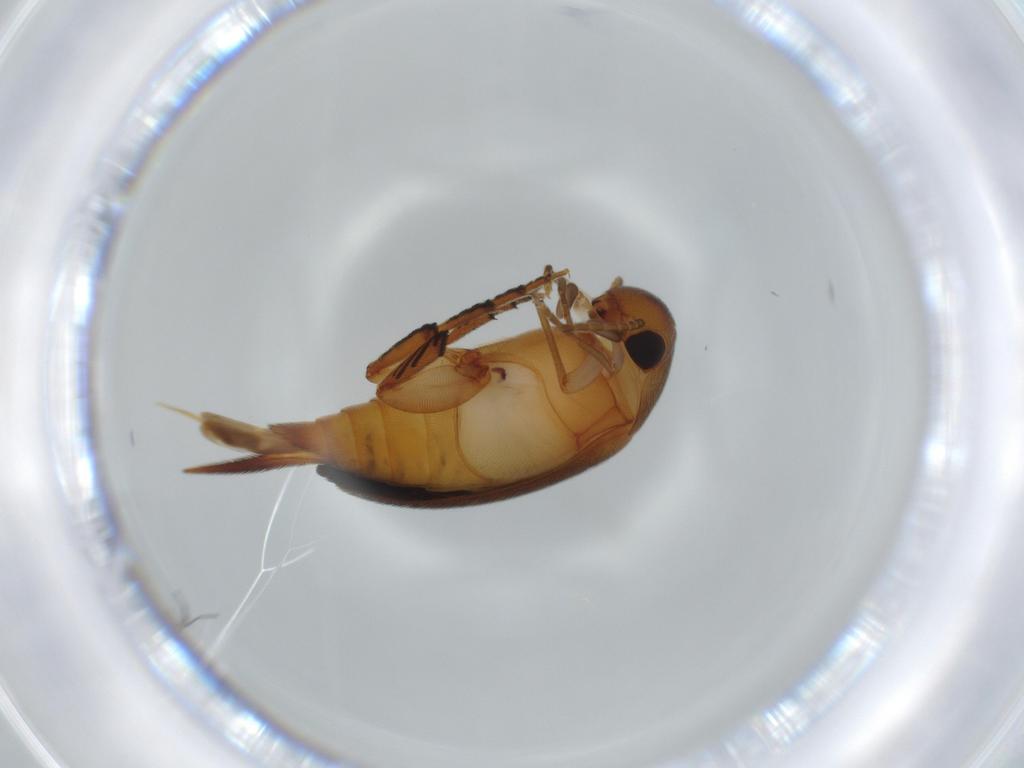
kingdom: Animalia
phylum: Arthropoda
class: Insecta
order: Coleoptera
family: Mordellidae
